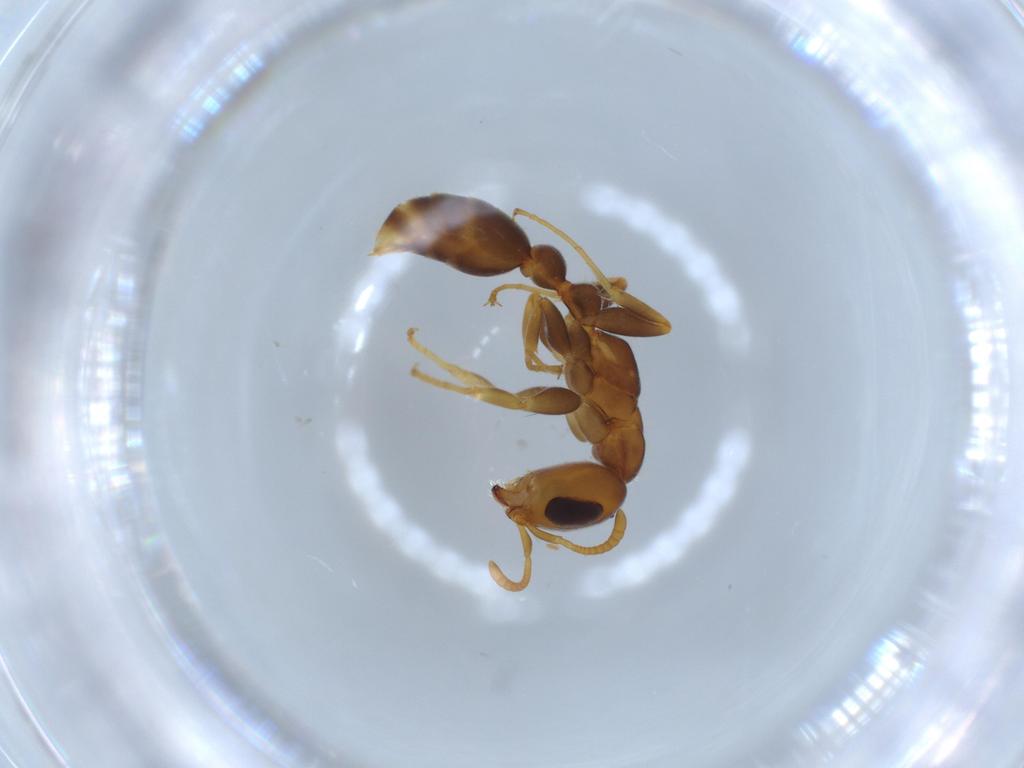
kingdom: Animalia
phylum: Arthropoda
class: Insecta
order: Hymenoptera
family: Formicidae
